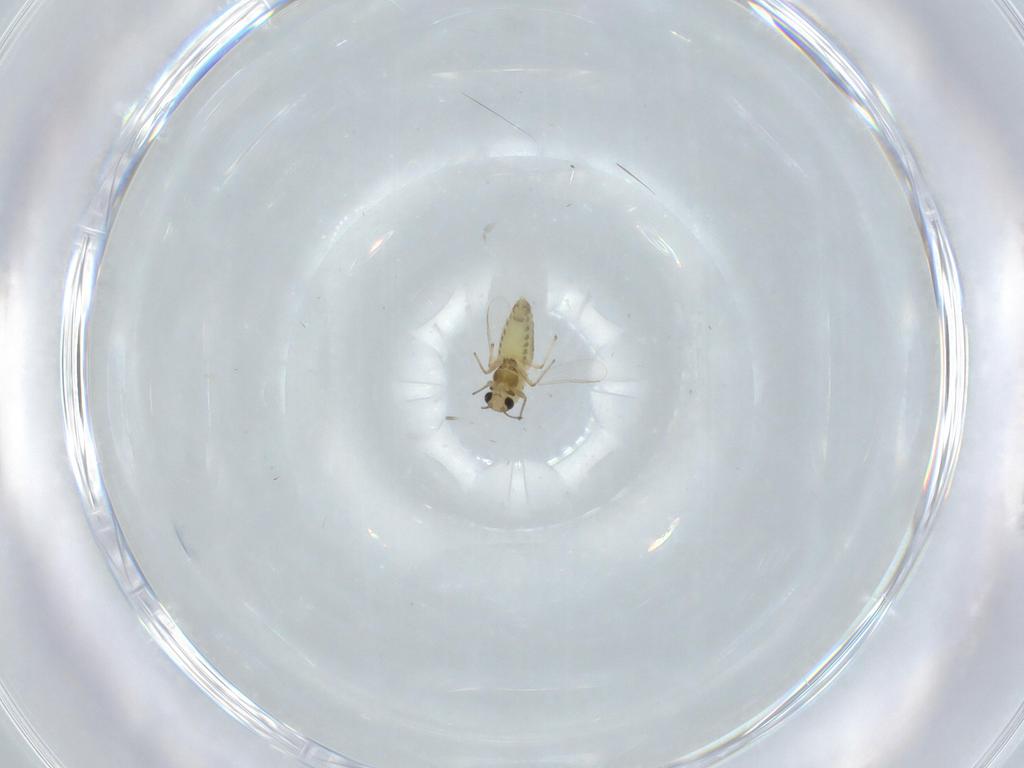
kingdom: Animalia
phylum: Arthropoda
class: Insecta
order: Diptera
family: Chironomidae
